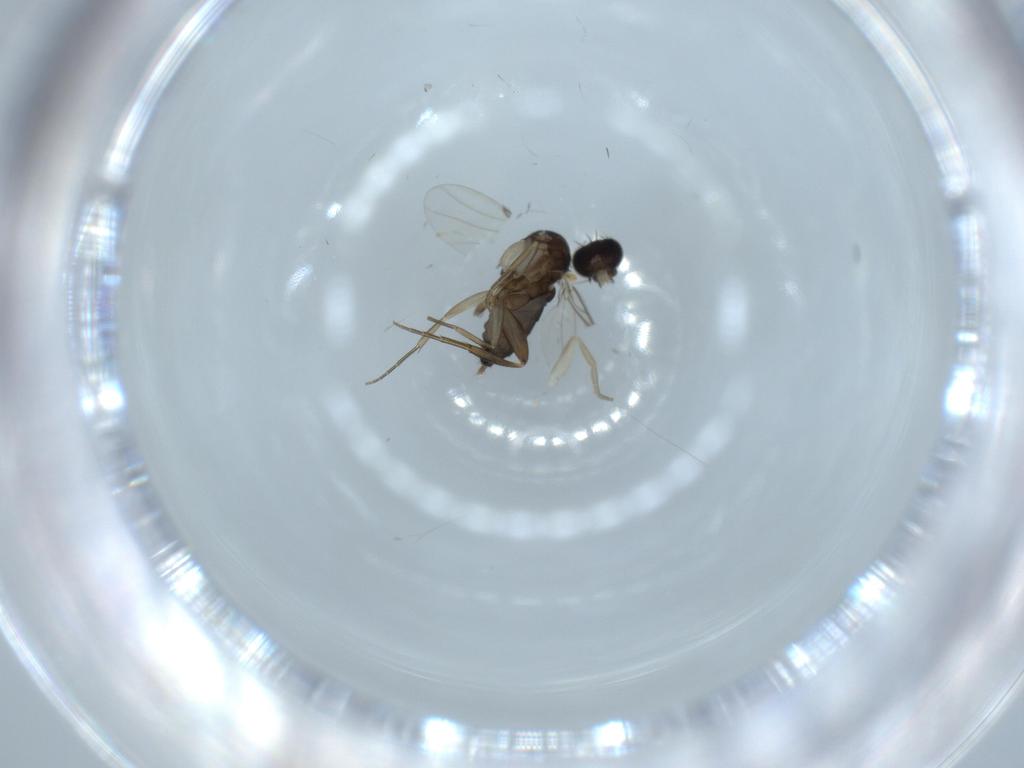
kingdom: Animalia
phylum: Arthropoda
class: Insecta
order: Diptera
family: Phoridae
